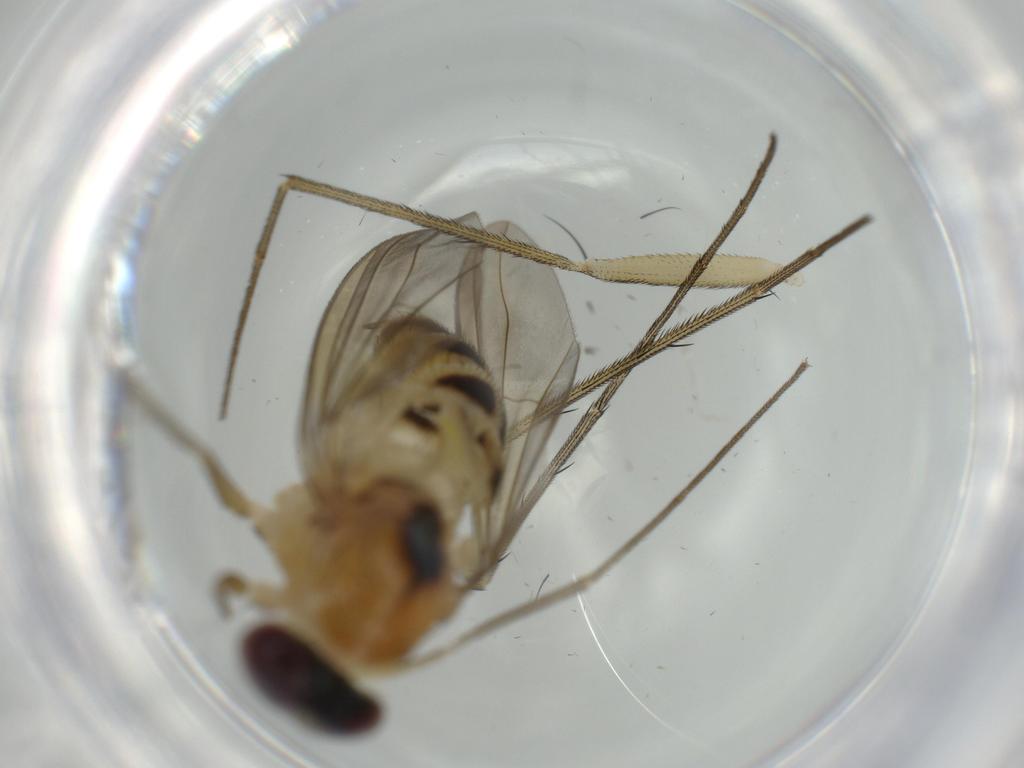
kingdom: Animalia
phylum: Arthropoda
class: Insecta
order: Diptera
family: Dolichopodidae
